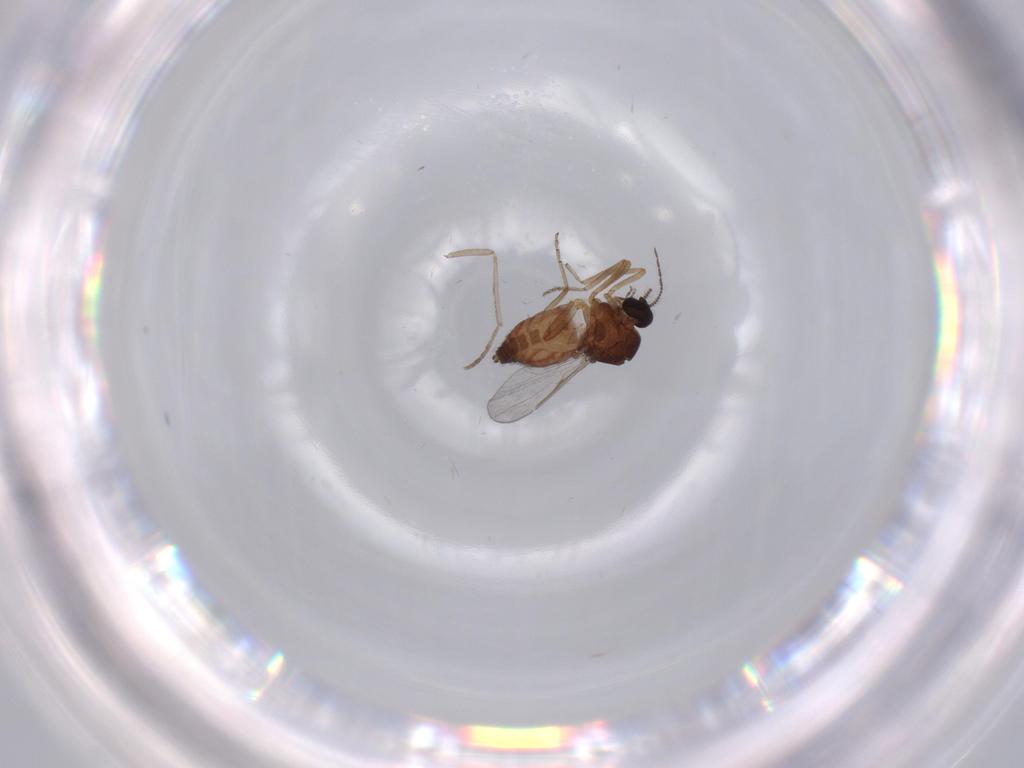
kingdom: Animalia
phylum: Arthropoda
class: Insecta
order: Diptera
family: Ceratopogonidae
